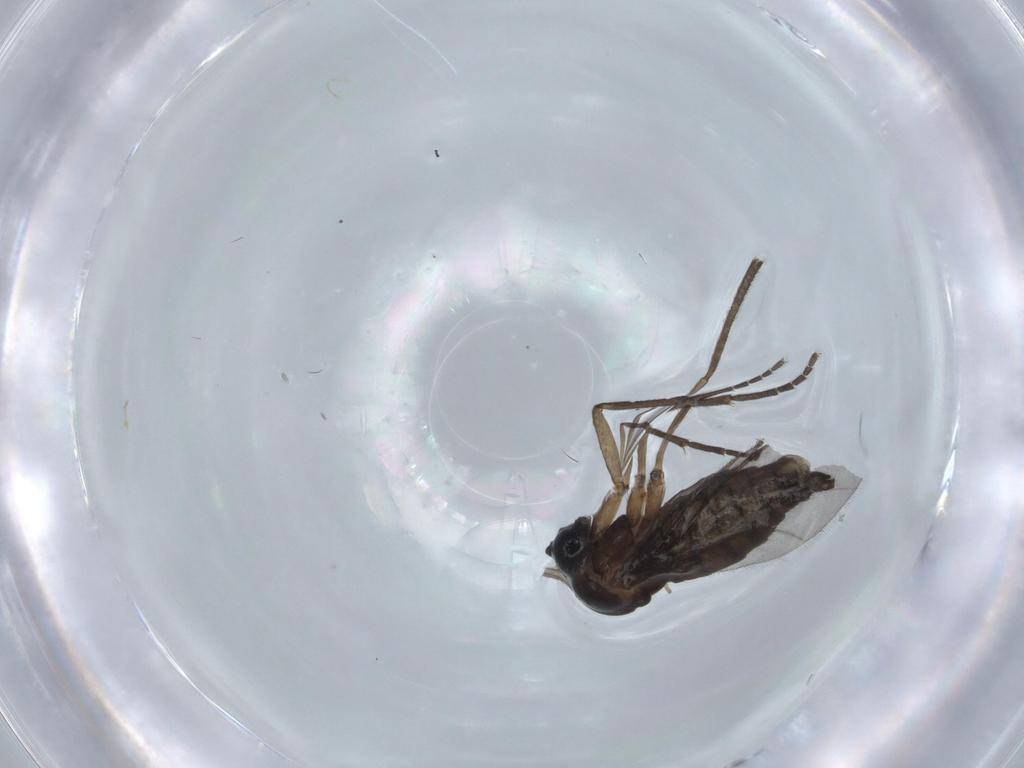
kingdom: Animalia
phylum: Arthropoda
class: Insecta
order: Diptera
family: Sciaridae
